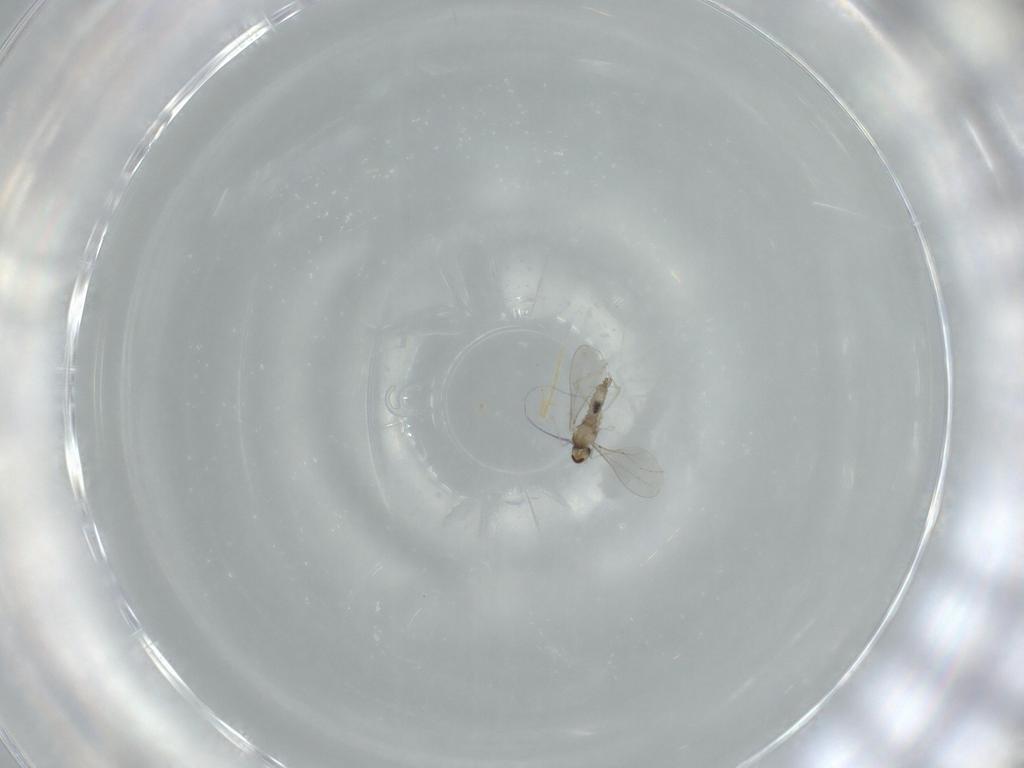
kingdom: Animalia
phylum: Arthropoda
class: Insecta
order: Diptera
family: Cecidomyiidae
